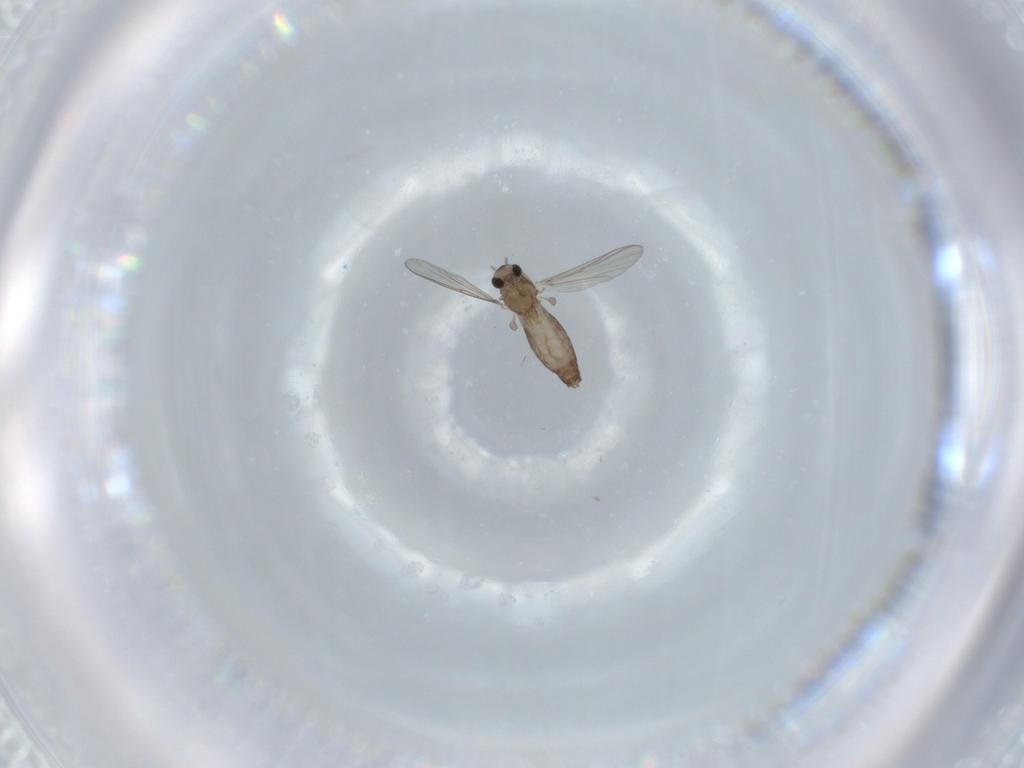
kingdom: Animalia
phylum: Arthropoda
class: Insecta
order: Diptera
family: Chironomidae
